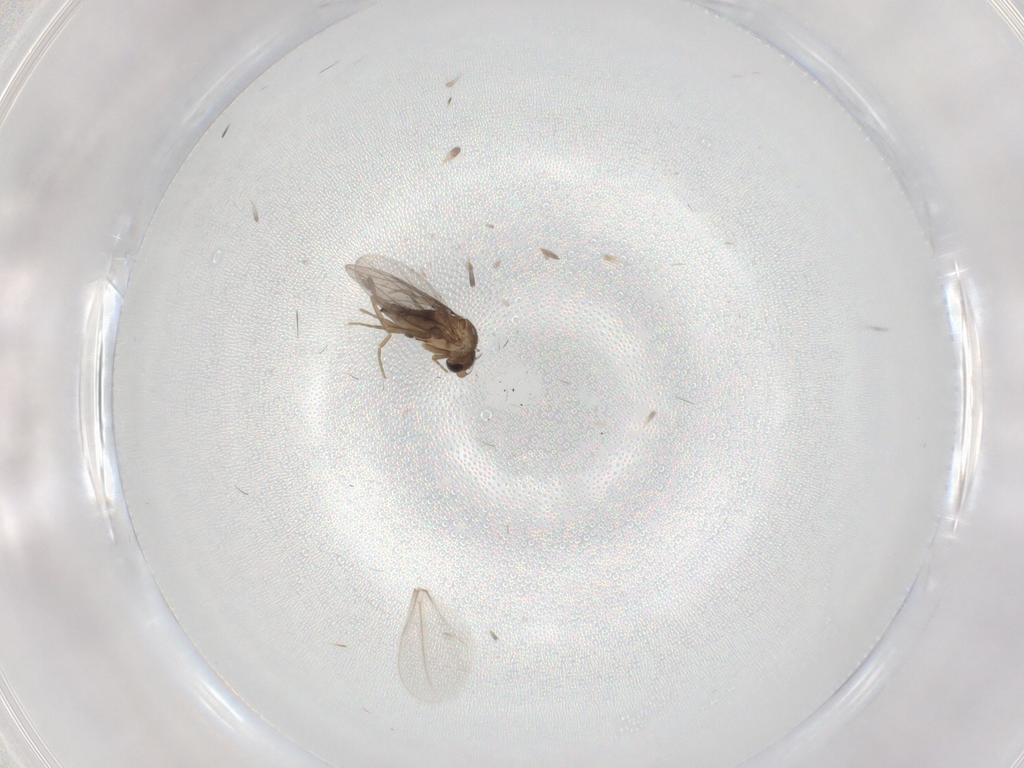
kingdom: Animalia
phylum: Arthropoda
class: Insecta
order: Diptera
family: Cecidomyiidae
